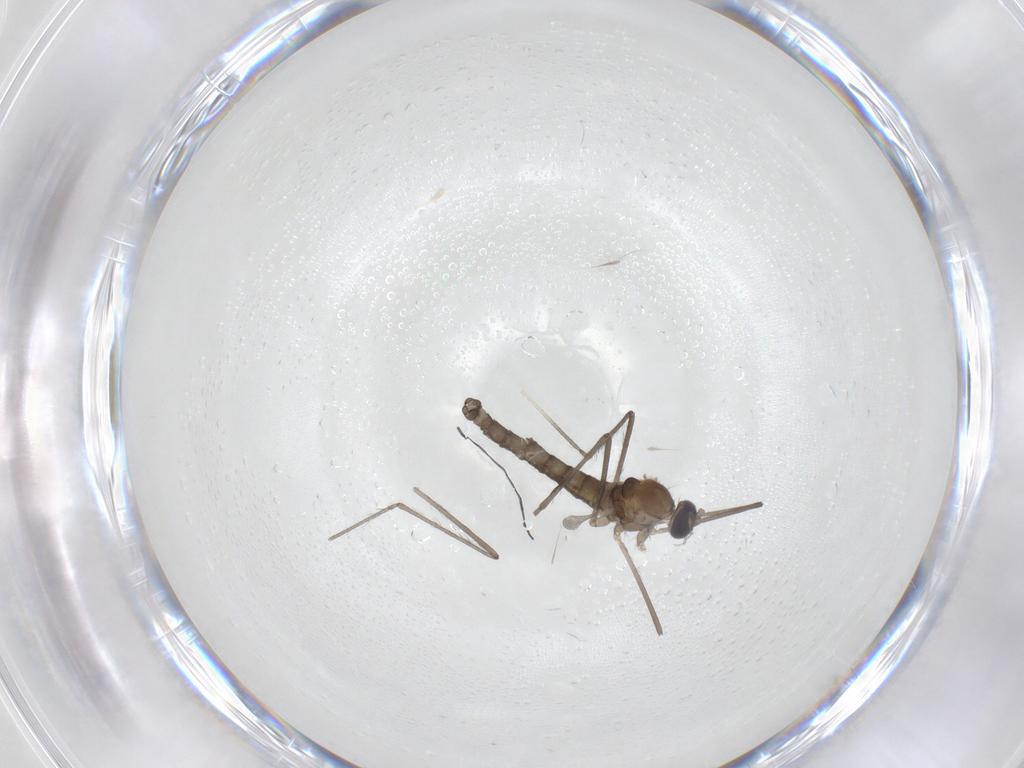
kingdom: Animalia
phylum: Arthropoda
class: Insecta
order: Diptera
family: Cecidomyiidae
